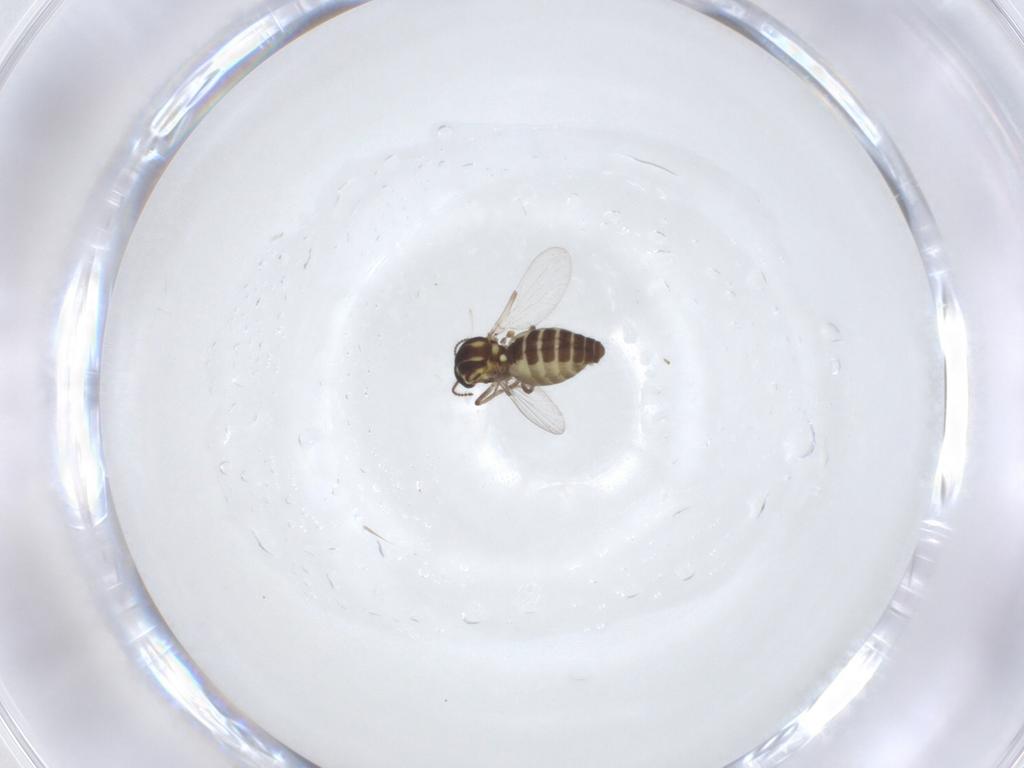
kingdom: Animalia
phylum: Arthropoda
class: Insecta
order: Diptera
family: Ceratopogonidae
